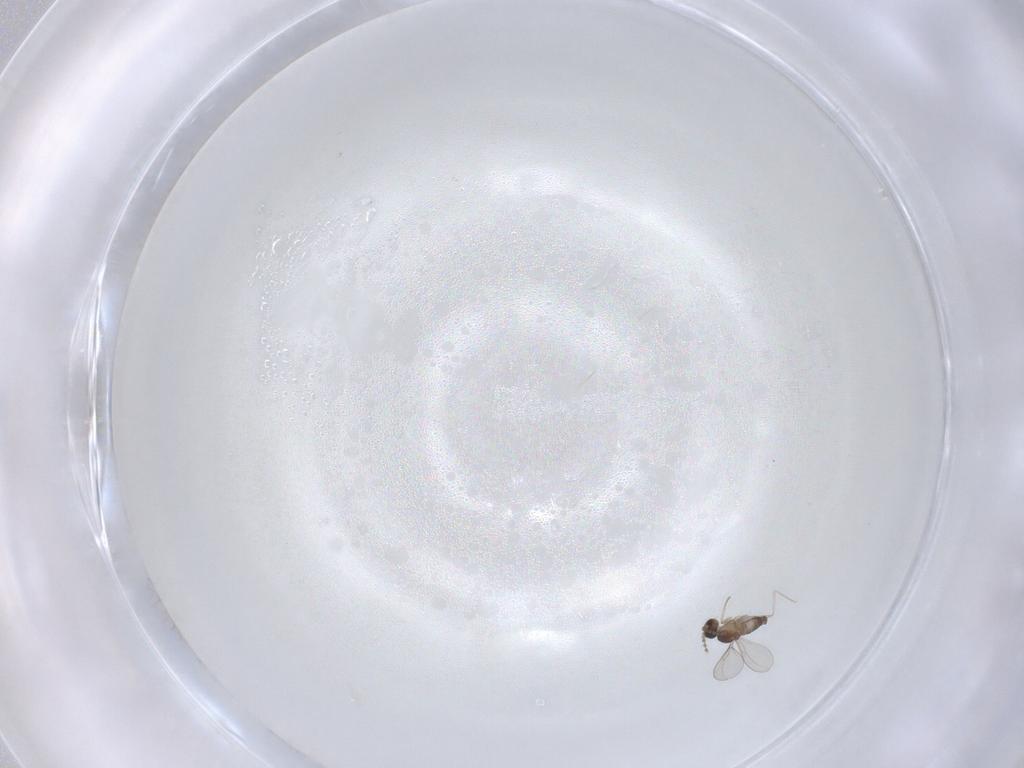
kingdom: Animalia
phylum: Arthropoda
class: Insecta
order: Diptera
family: Cecidomyiidae
